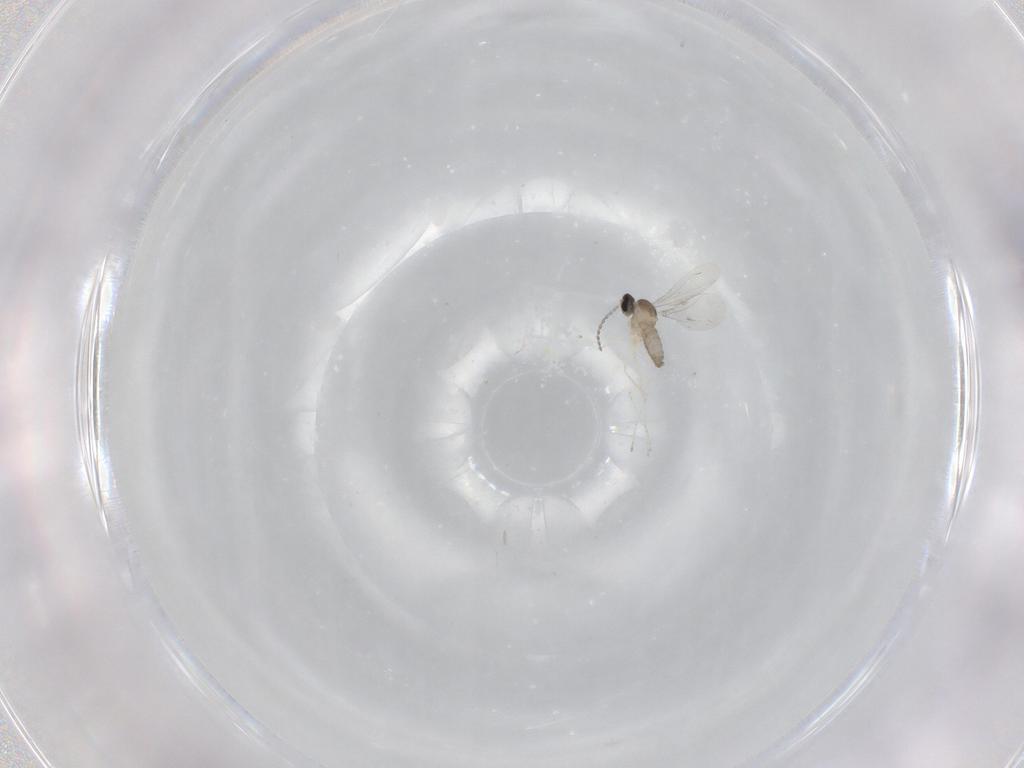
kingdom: Animalia
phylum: Arthropoda
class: Insecta
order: Diptera
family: Cecidomyiidae
